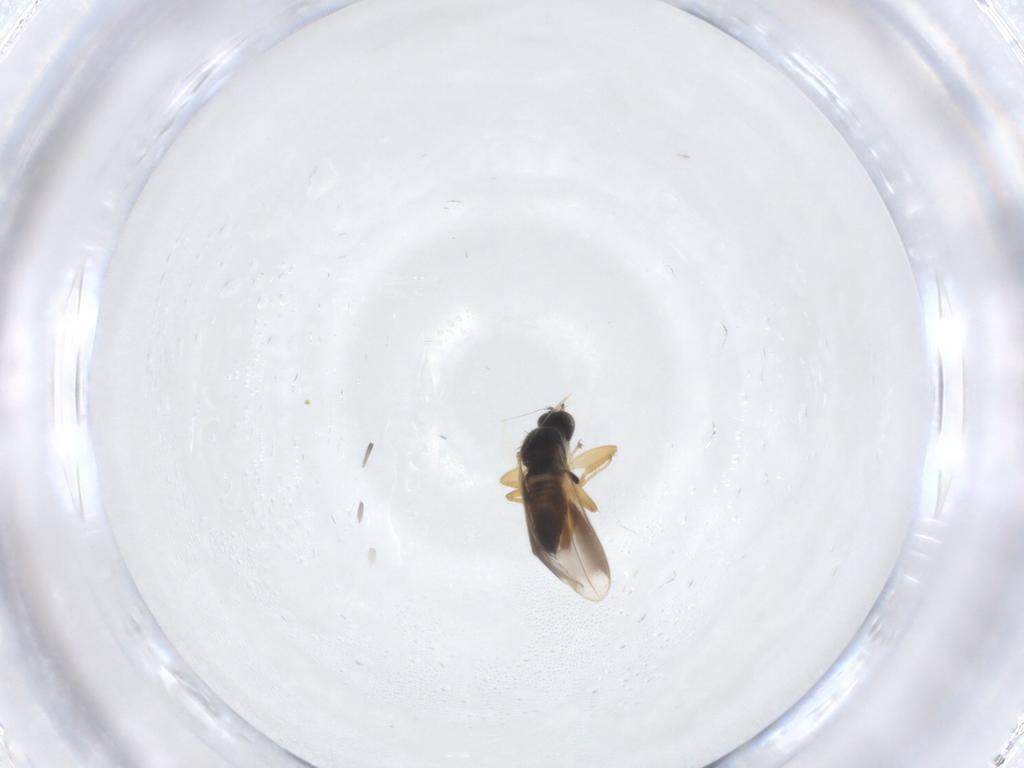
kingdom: Animalia
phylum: Arthropoda
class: Insecta
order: Diptera
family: Hybotidae
